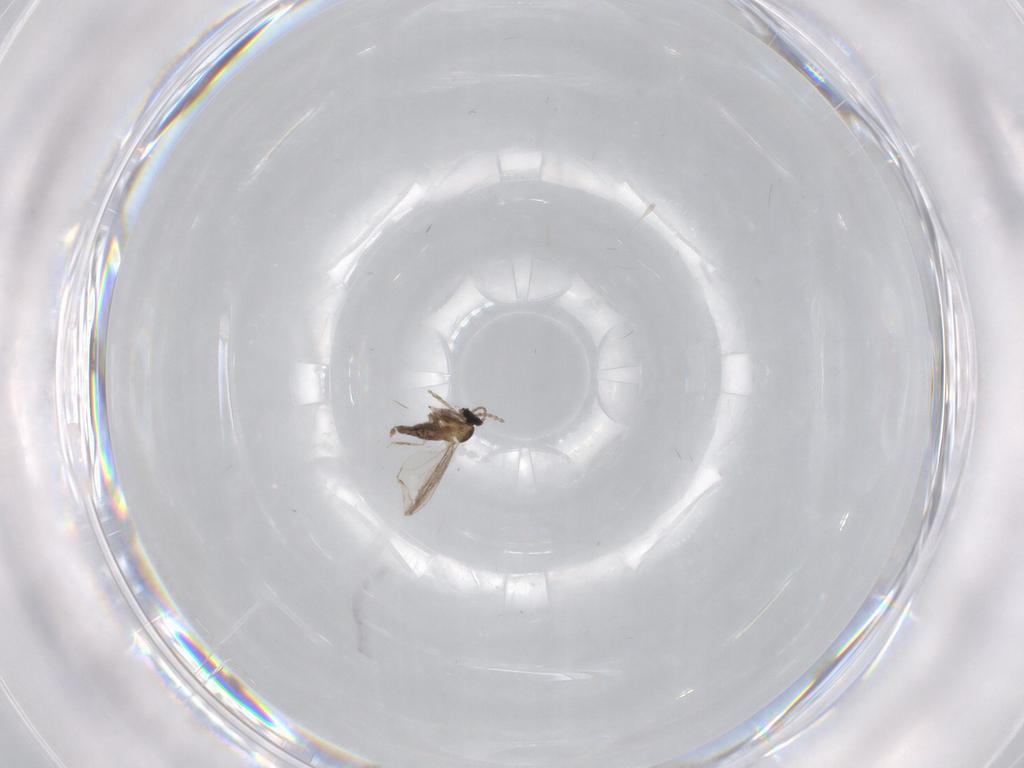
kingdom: Animalia
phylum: Arthropoda
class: Insecta
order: Diptera
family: Cecidomyiidae
